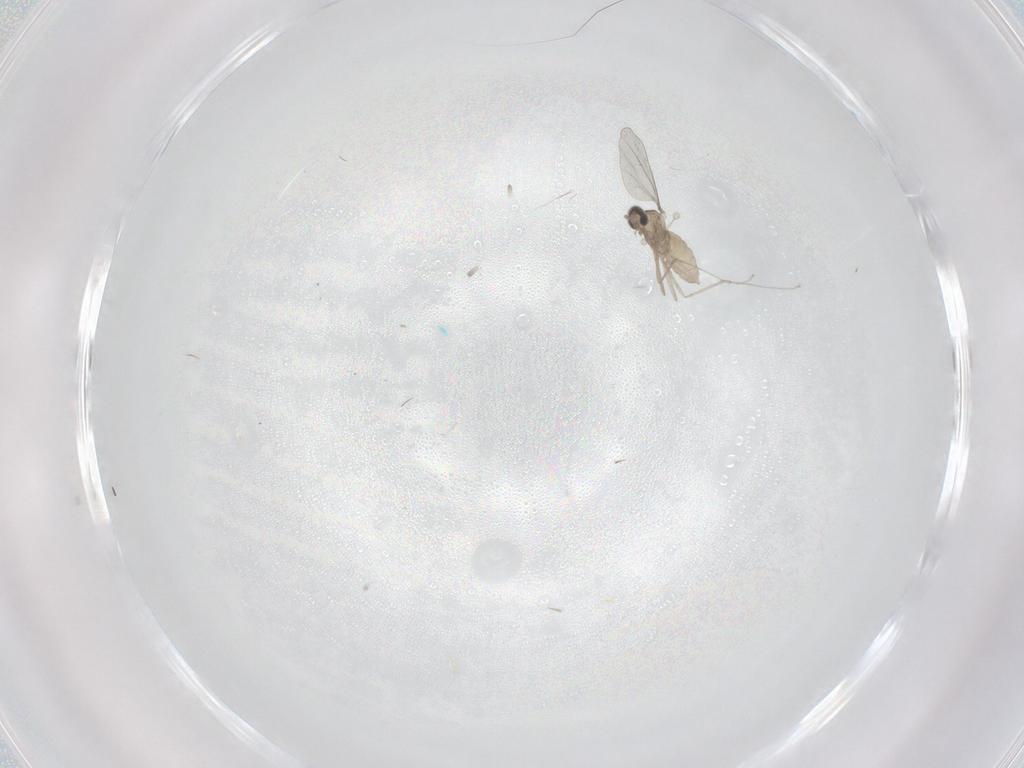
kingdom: Animalia
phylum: Arthropoda
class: Insecta
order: Diptera
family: Cecidomyiidae
